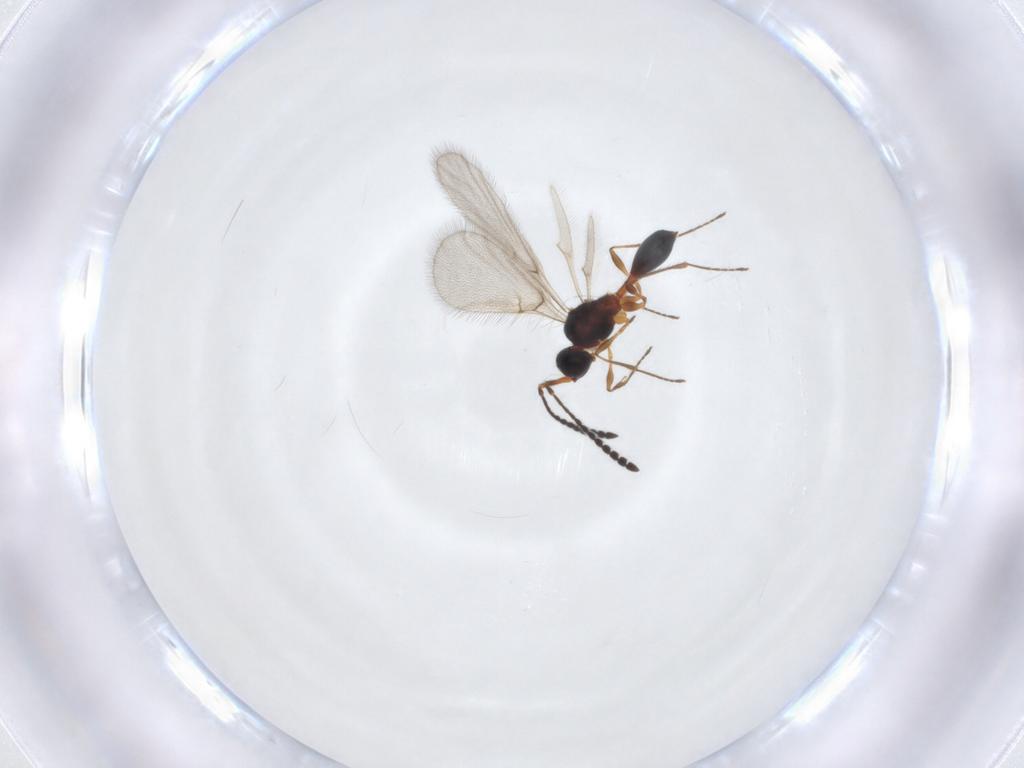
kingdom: Animalia
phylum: Arthropoda
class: Insecta
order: Hymenoptera
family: Diapriidae
